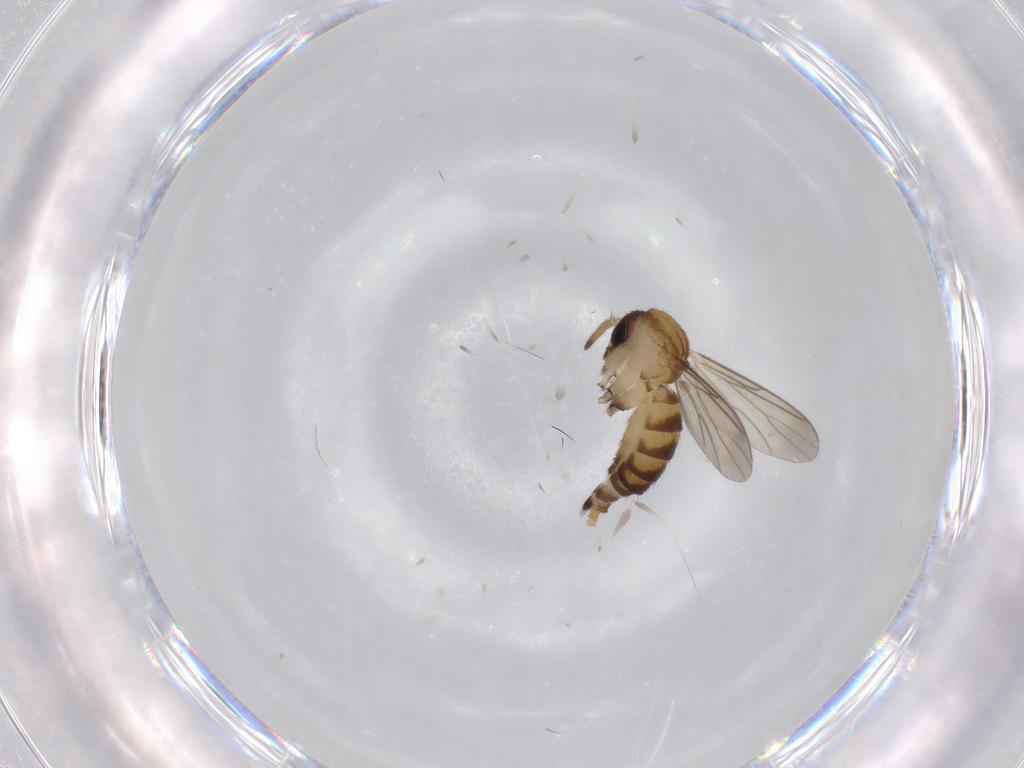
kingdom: Animalia
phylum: Arthropoda
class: Insecta
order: Diptera
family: Mycetophilidae
